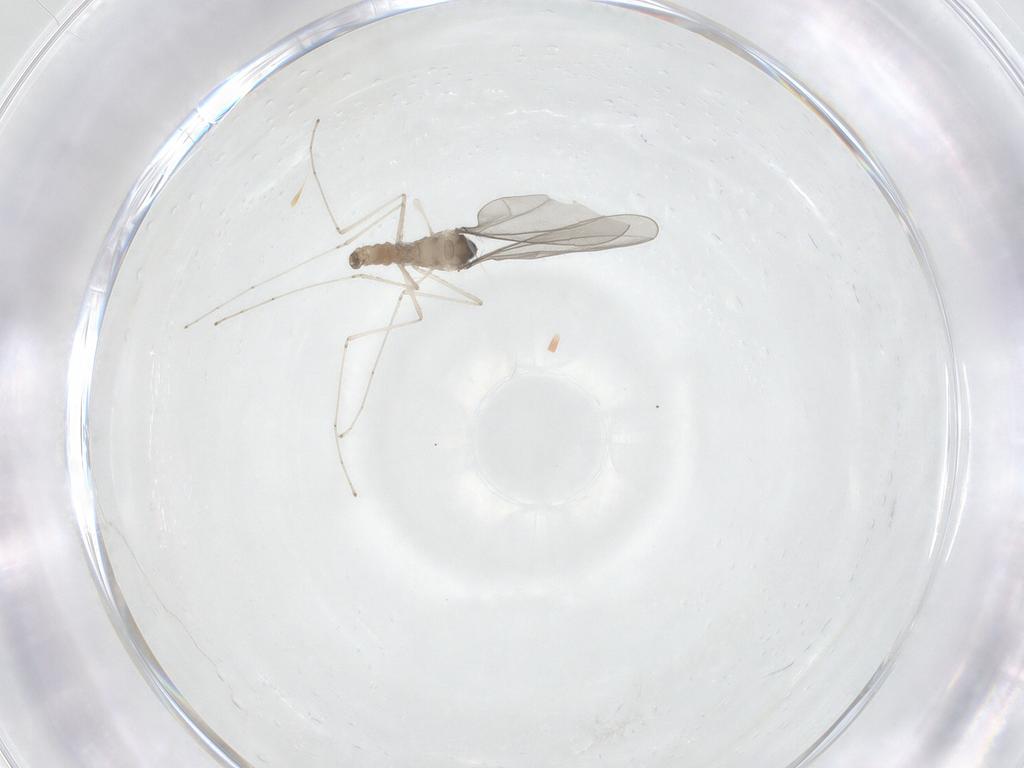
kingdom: Animalia
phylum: Arthropoda
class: Insecta
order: Diptera
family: Cecidomyiidae
